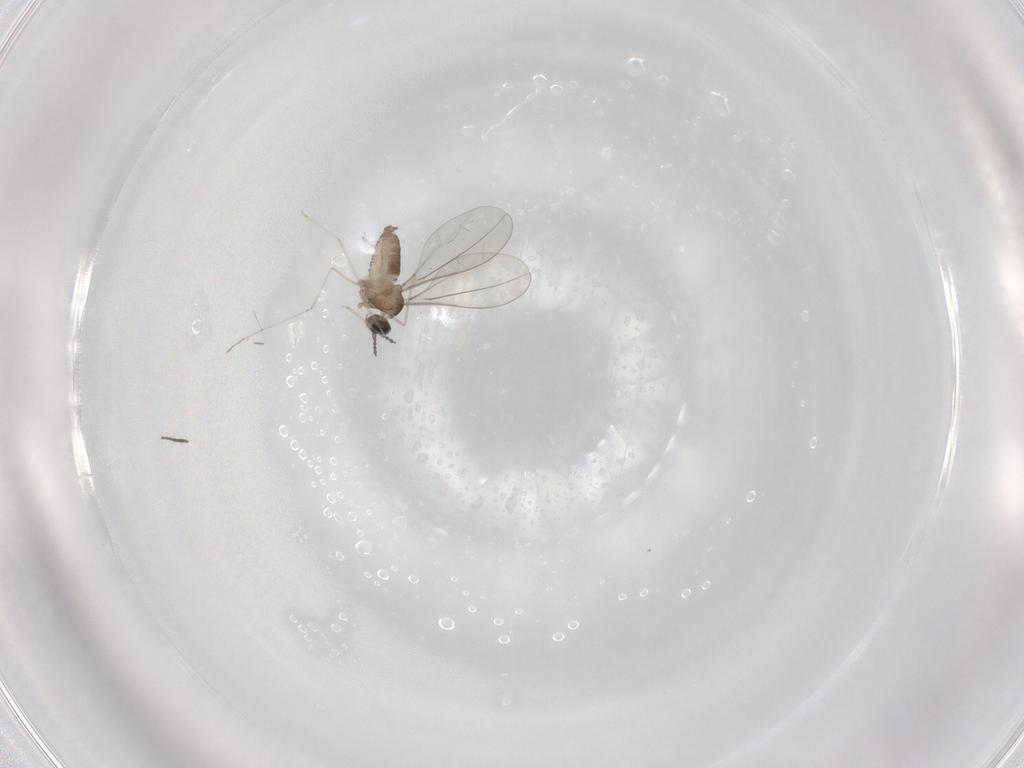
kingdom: Animalia
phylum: Arthropoda
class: Insecta
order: Diptera
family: Cecidomyiidae
